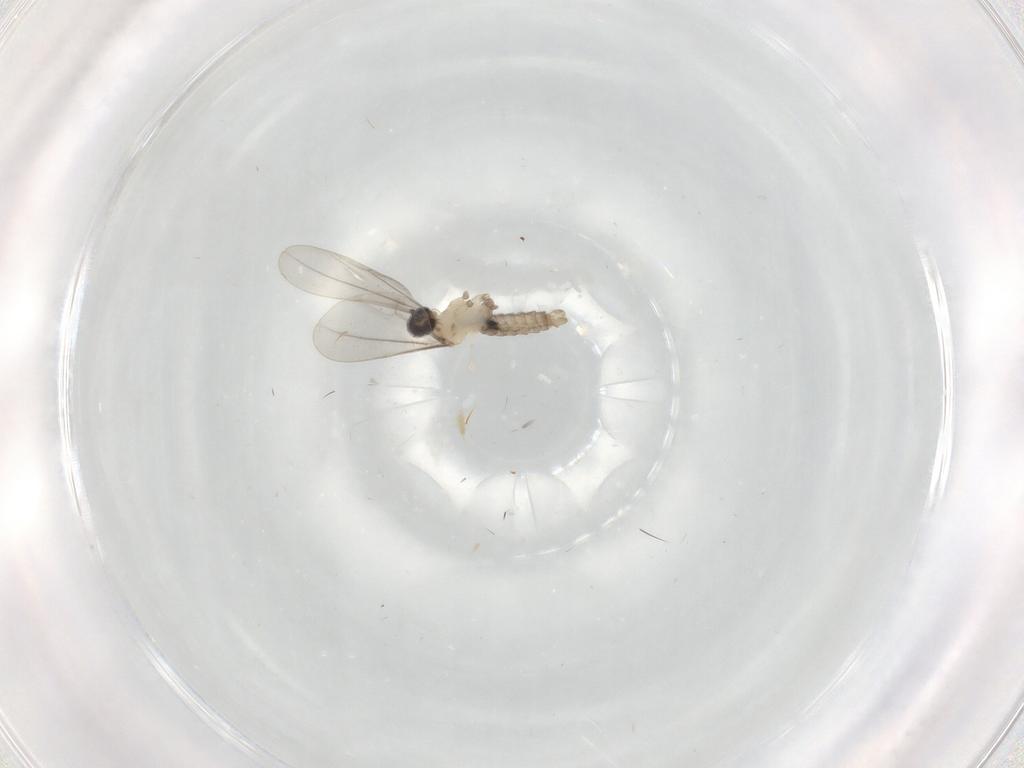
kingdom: Animalia
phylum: Arthropoda
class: Insecta
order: Diptera
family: Cecidomyiidae
